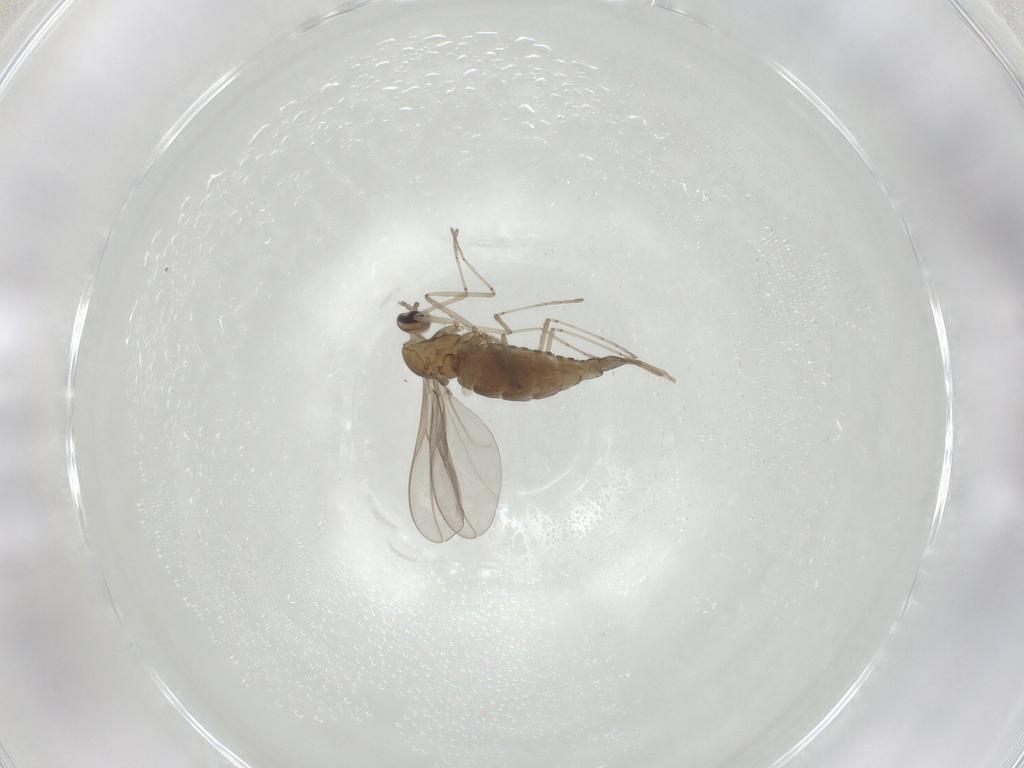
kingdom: Animalia
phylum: Arthropoda
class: Insecta
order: Diptera
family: Cecidomyiidae
